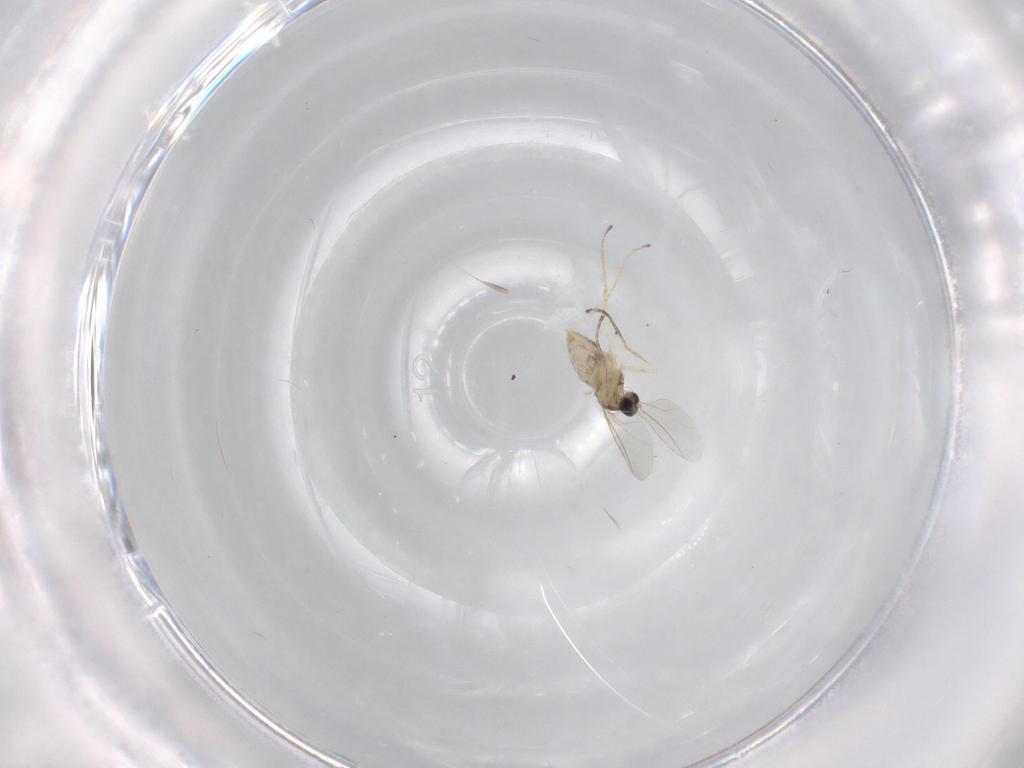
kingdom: Animalia
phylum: Arthropoda
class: Insecta
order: Diptera
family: Cecidomyiidae
